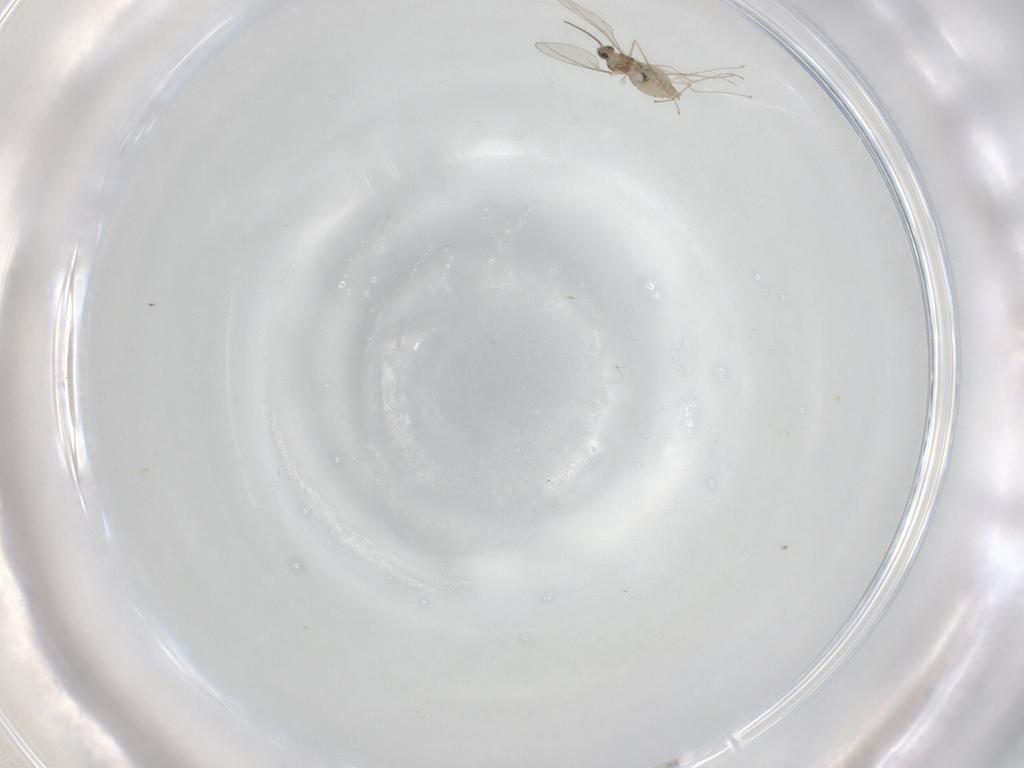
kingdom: Animalia
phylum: Arthropoda
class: Insecta
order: Diptera
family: Cecidomyiidae
